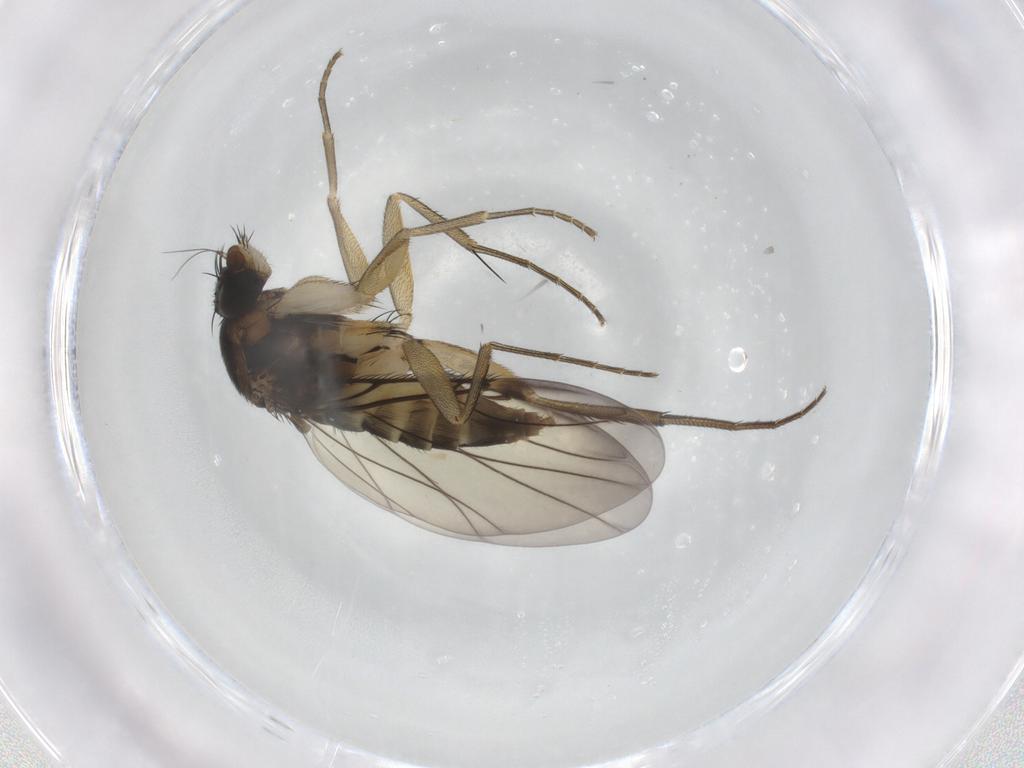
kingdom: Animalia
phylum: Arthropoda
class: Insecta
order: Diptera
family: Phoridae
